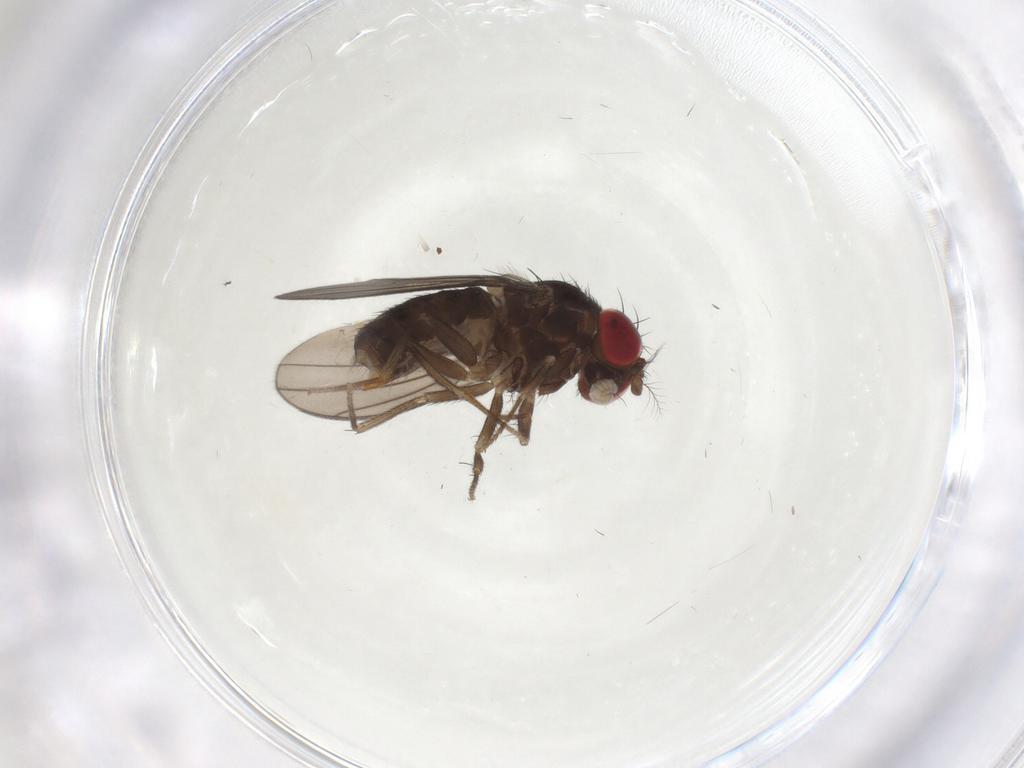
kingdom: Animalia
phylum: Arthropoda
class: Insecta
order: Diptera
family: Drosophilidae
